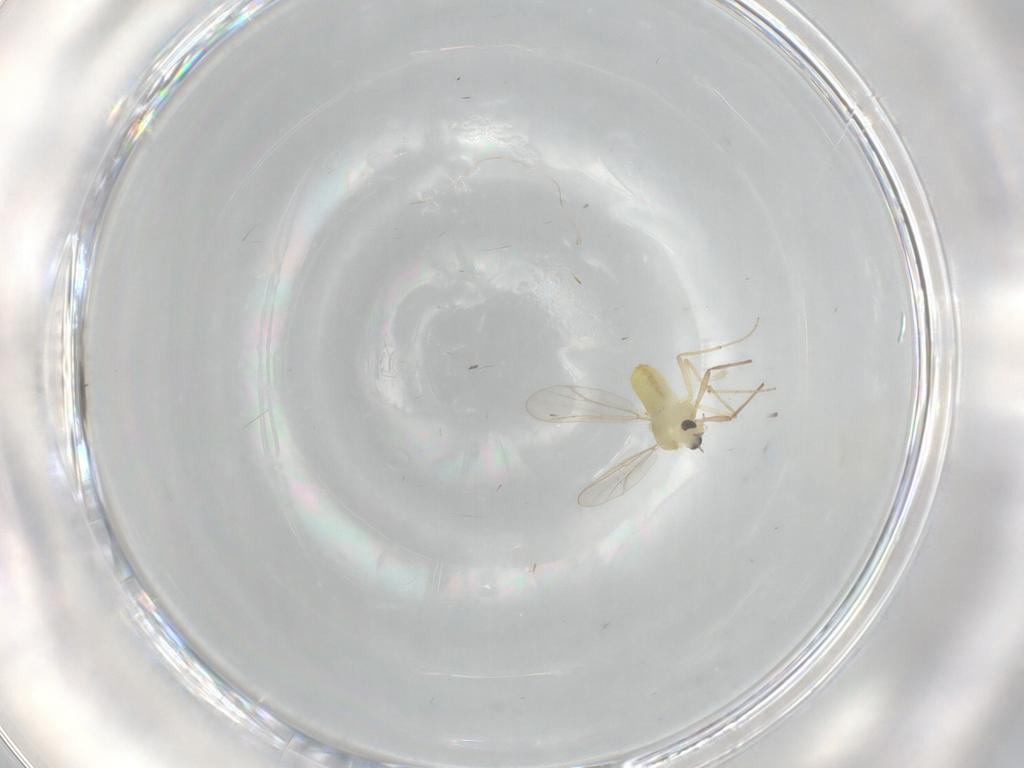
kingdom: Animalia
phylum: Arthropoda
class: Insecta
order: Diptera
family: Chironomidae
